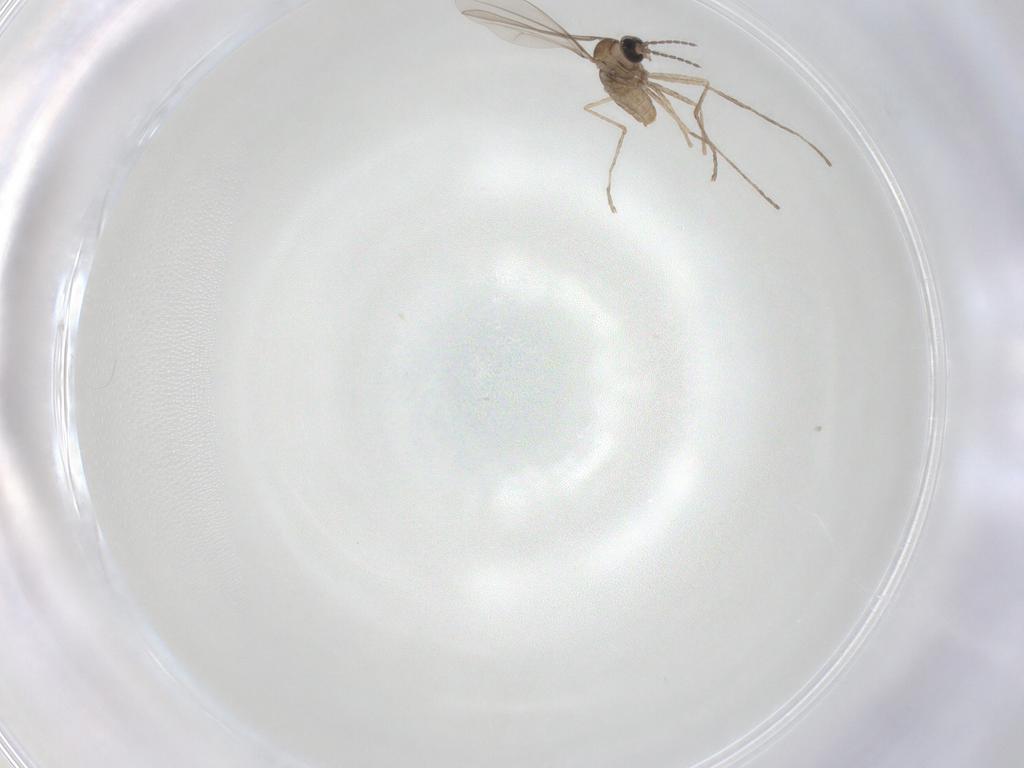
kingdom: Animalia
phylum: Arthropoda
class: Insecta
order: Diptera
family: Cecidomyiidae
